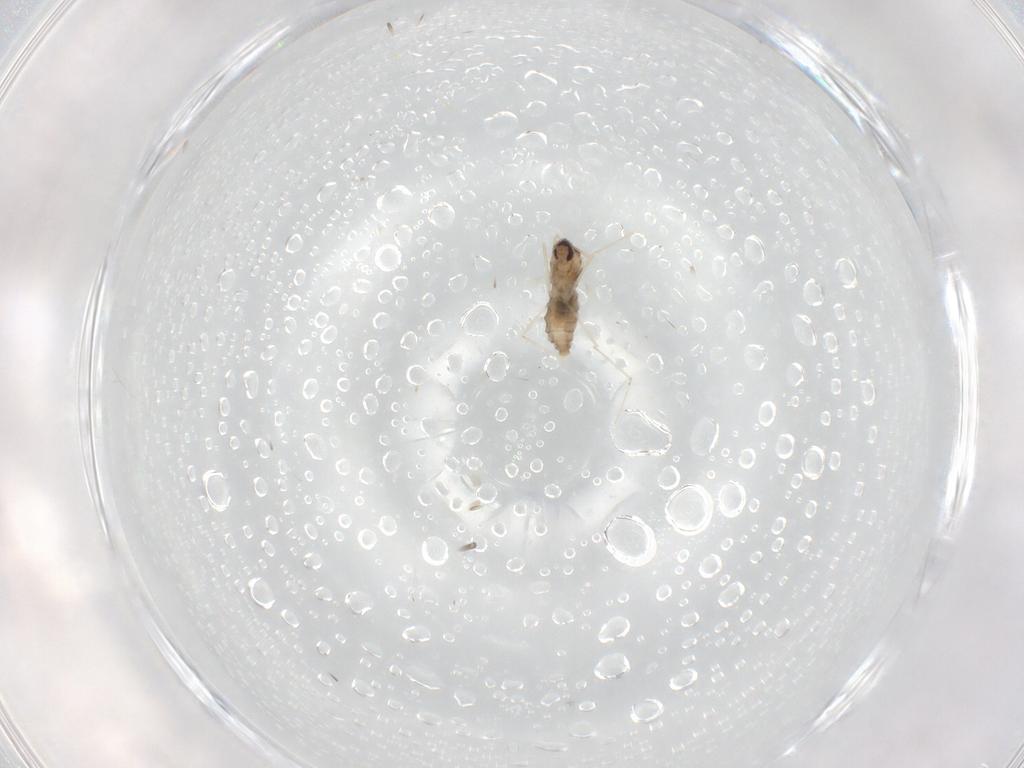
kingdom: Animalia
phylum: Arthropoda
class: Insecta
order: Diptera
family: Cecidomyiidae
